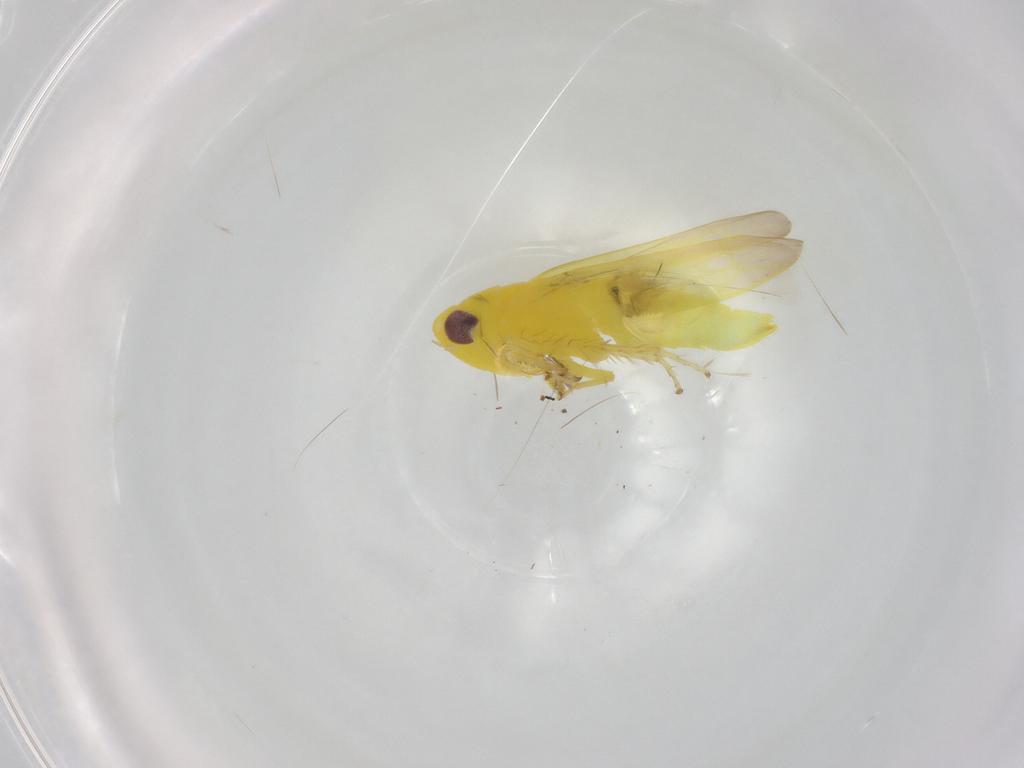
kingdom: Animalia
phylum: Arthropoda
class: Insecta
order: Hemiptera
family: Cicadellidae
